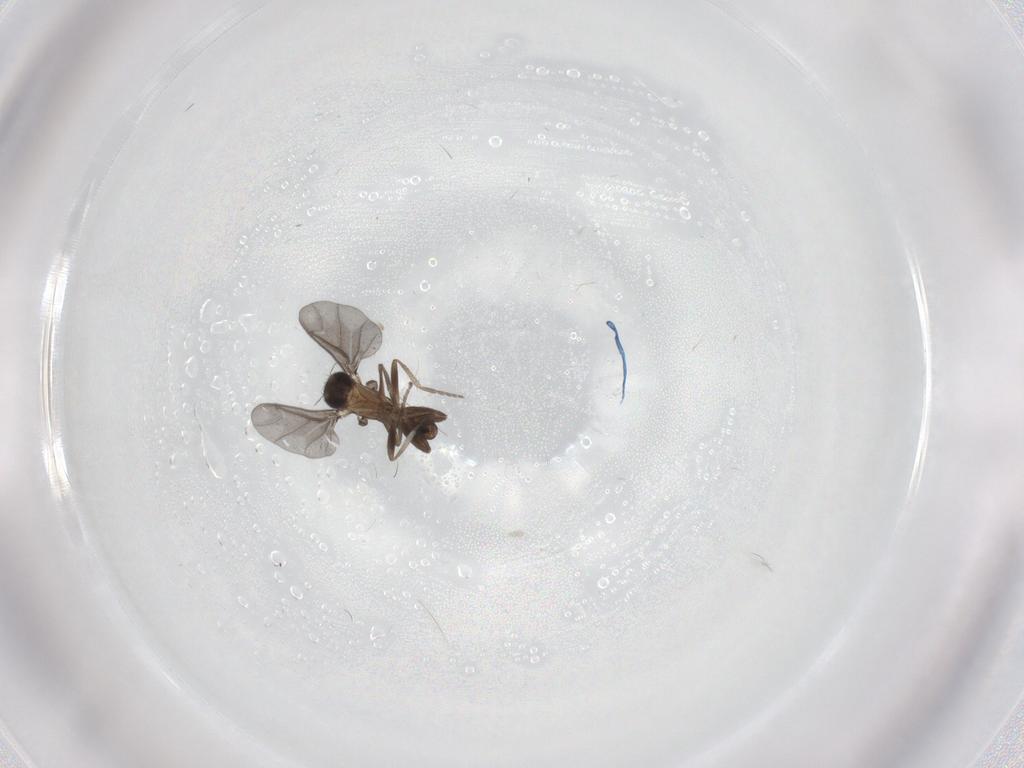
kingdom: Animalia
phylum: Arthropoda
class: Insecta
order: Diptera
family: Phoridae
